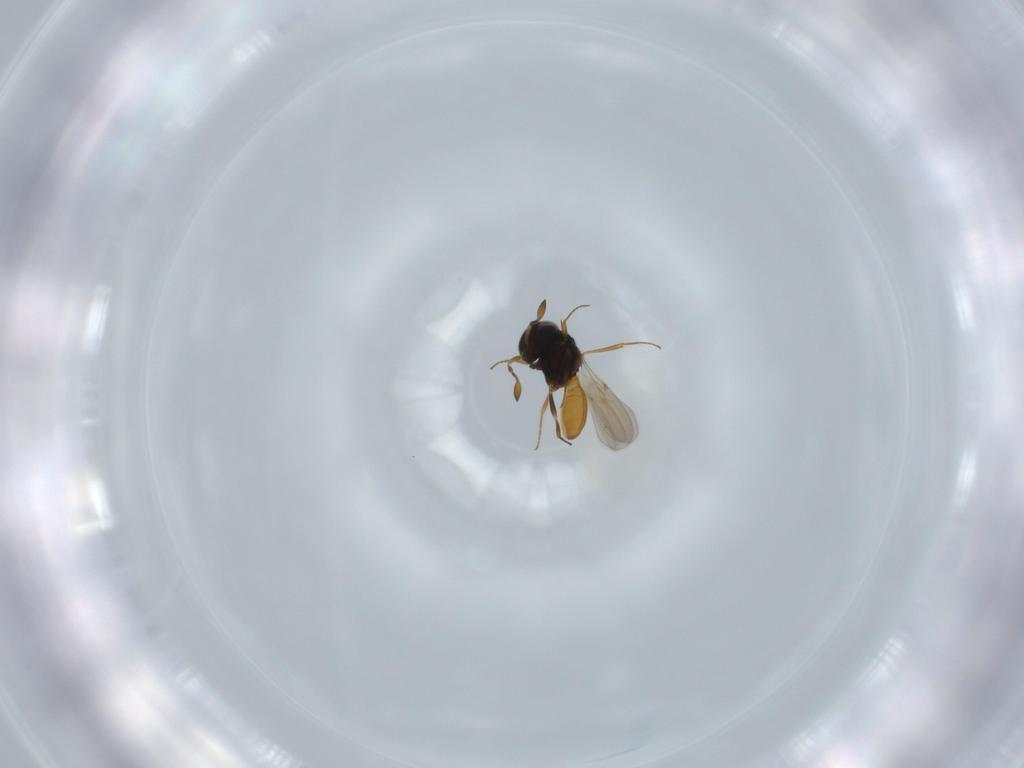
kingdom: Animalia
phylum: Arthropoda
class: Insecta
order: Hymenoptera
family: Scelionidae
